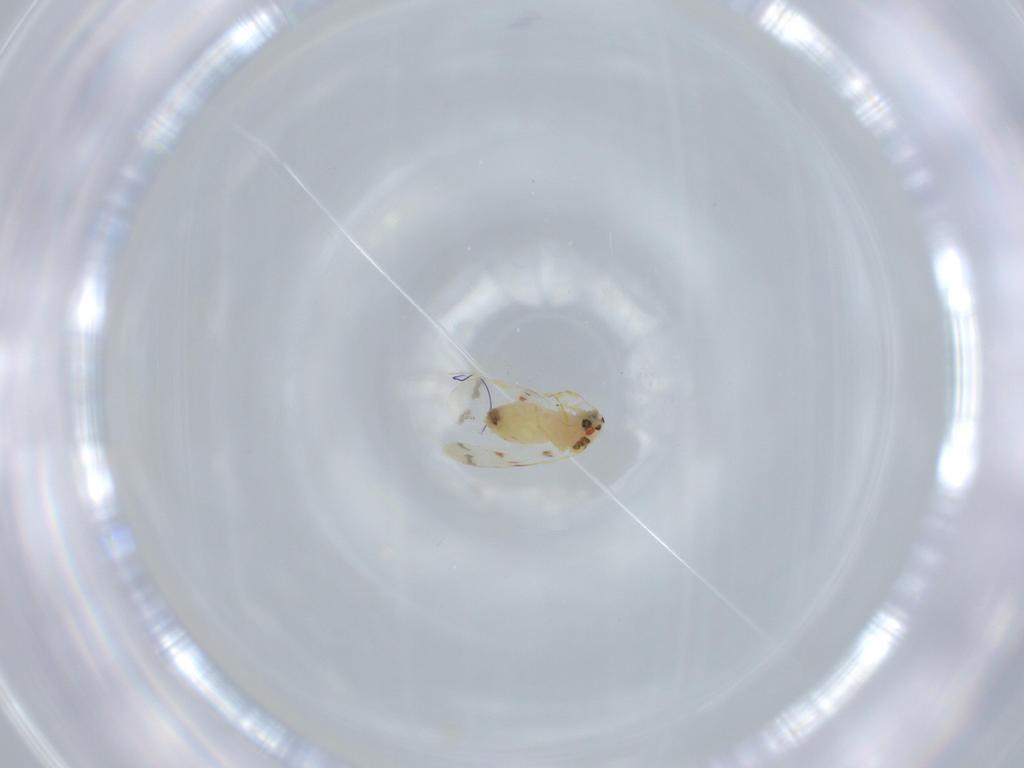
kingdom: Animalia
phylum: Arthropoda
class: Insecta
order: Hemiptera
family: Aleyrodidae
